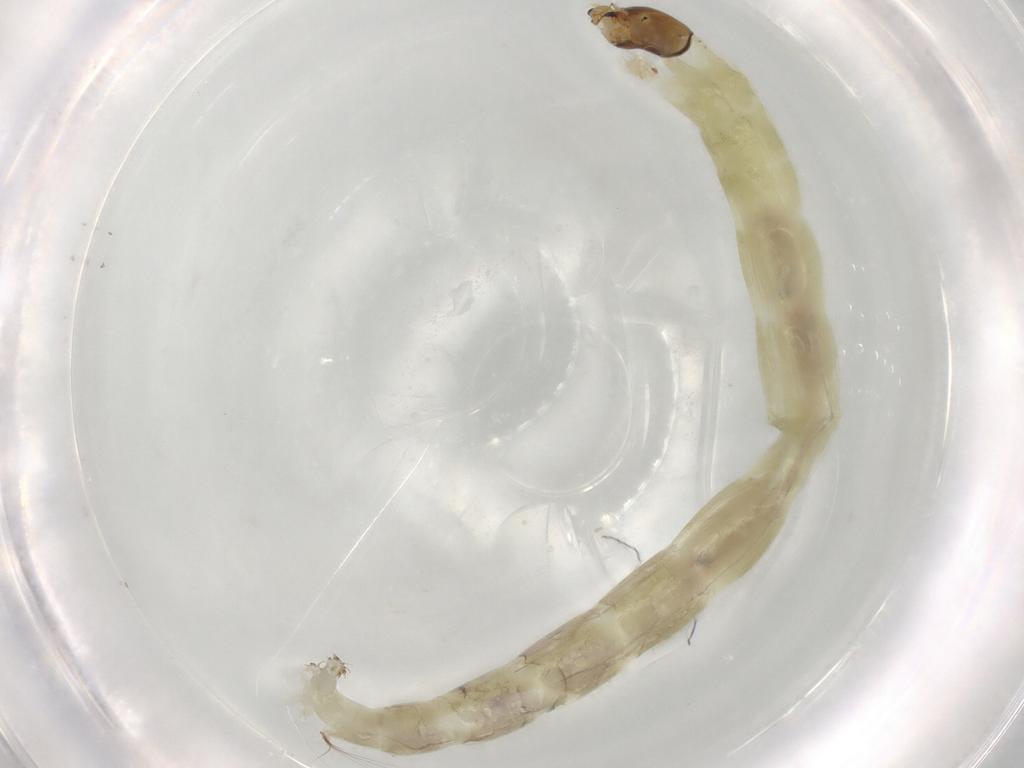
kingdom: Animalia
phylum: Arthropoda
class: Insecta
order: Diptera
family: Chironomidae
